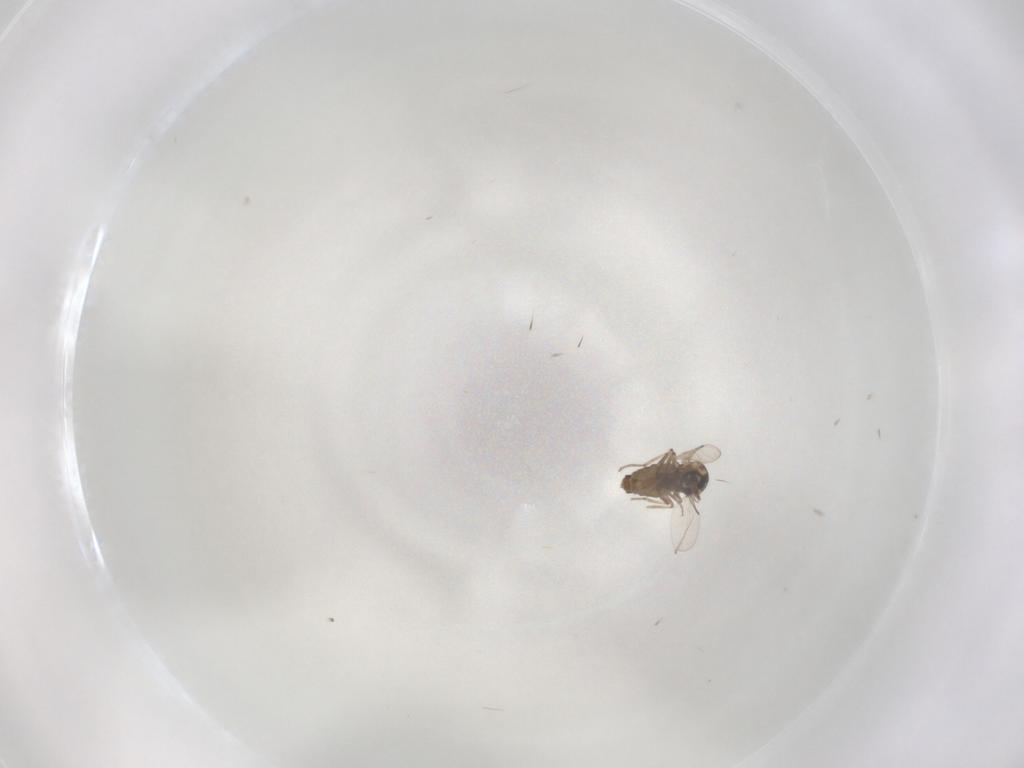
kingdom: Animalia
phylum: Arthropoda
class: Insecta
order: Diptera
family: Ceratopogonidae
